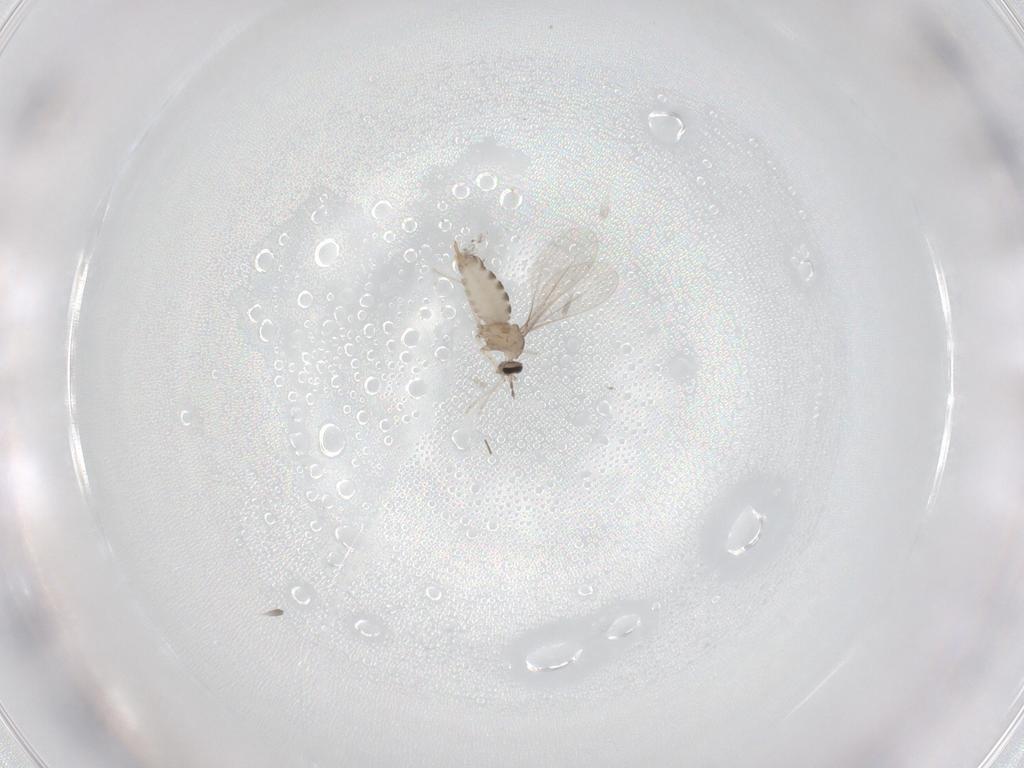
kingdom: Animalia
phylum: Arthropoda
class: Insecta
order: Diptera
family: Cecidomyiidae
